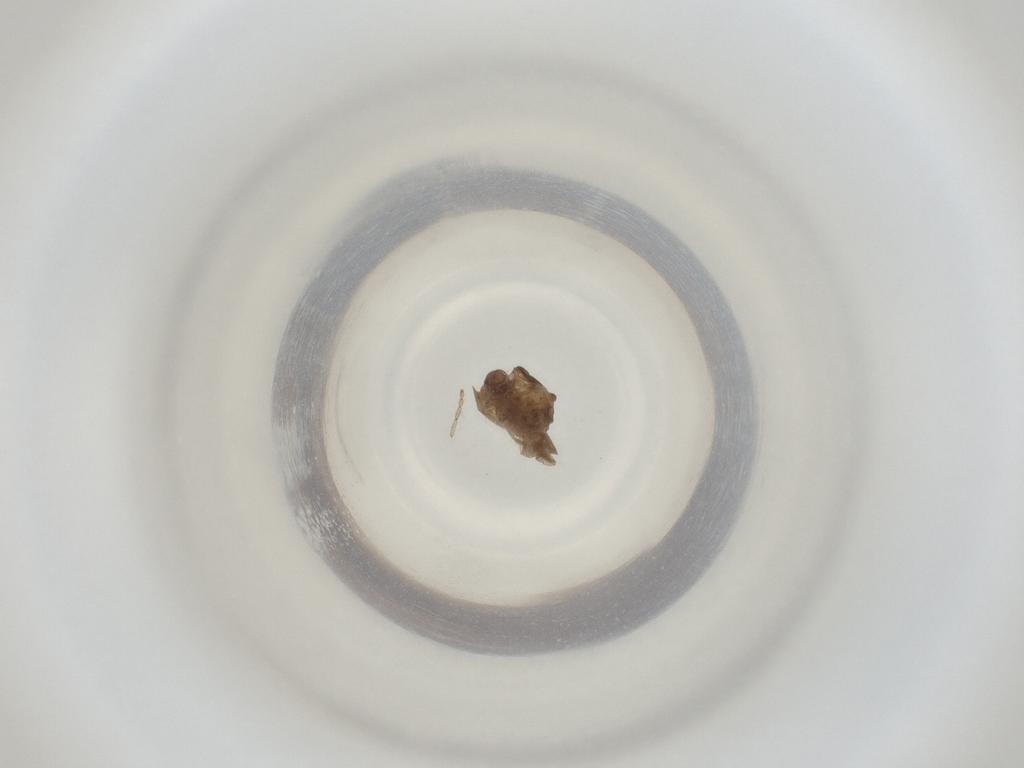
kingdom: Animalia
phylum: Arthropoda
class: Insecta
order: Diptera
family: Cecidomyiidae
